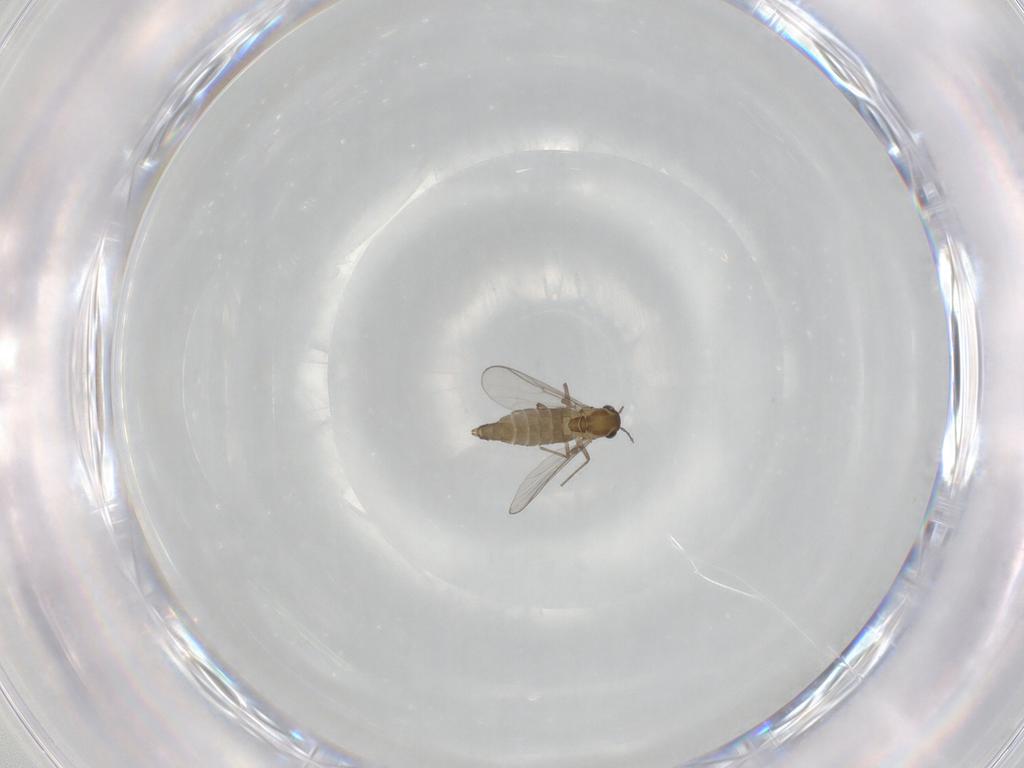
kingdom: Animalia
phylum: Arthropoda
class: Insecta
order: Diptera
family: Chironomidae
